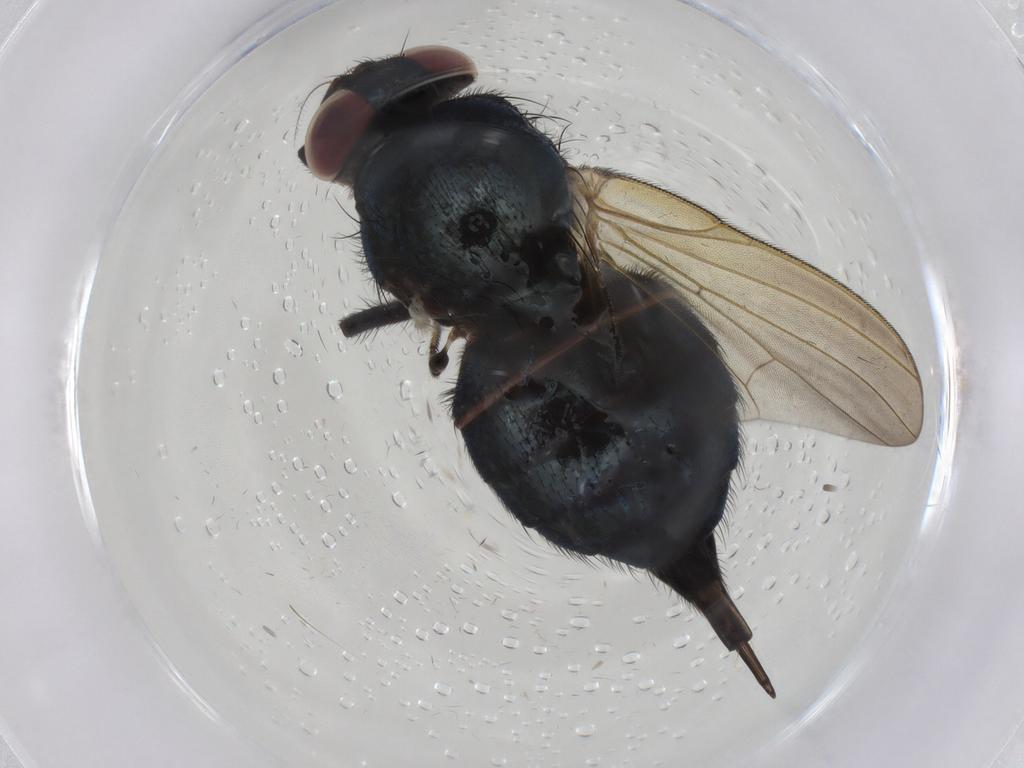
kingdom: Animalia
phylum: Arthropoda
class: Insecta
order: Diptera
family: Lonchaeidae
